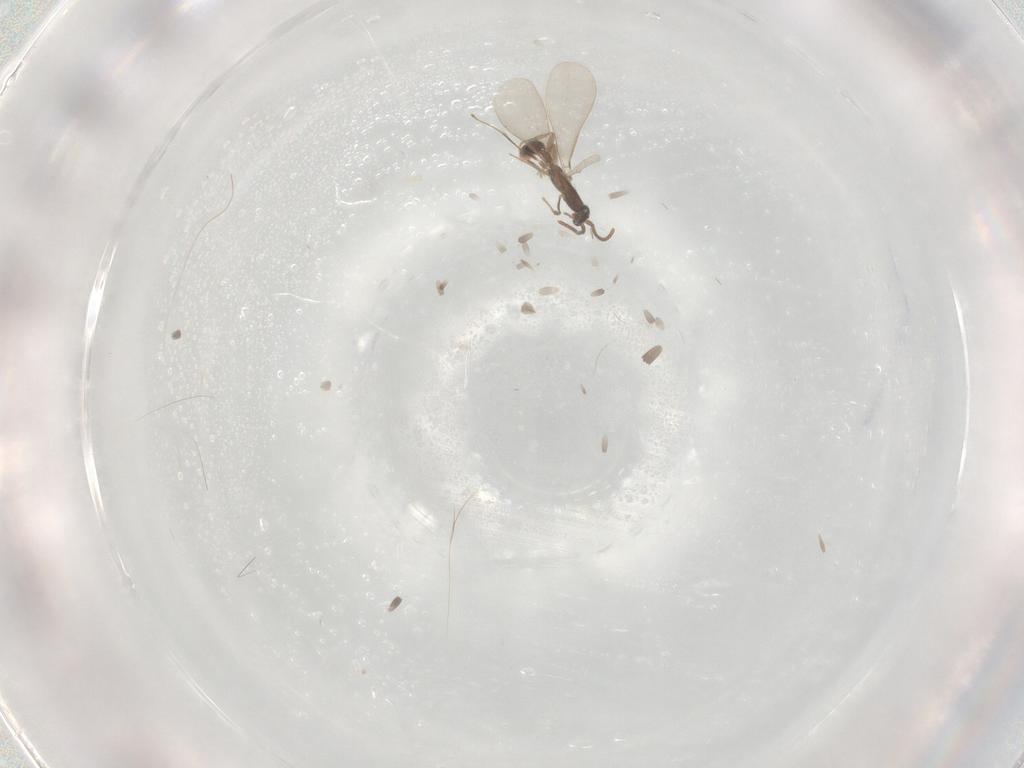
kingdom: Animalia
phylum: Arthropoda
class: Insecta
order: Hymenoptera
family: Formicidae
